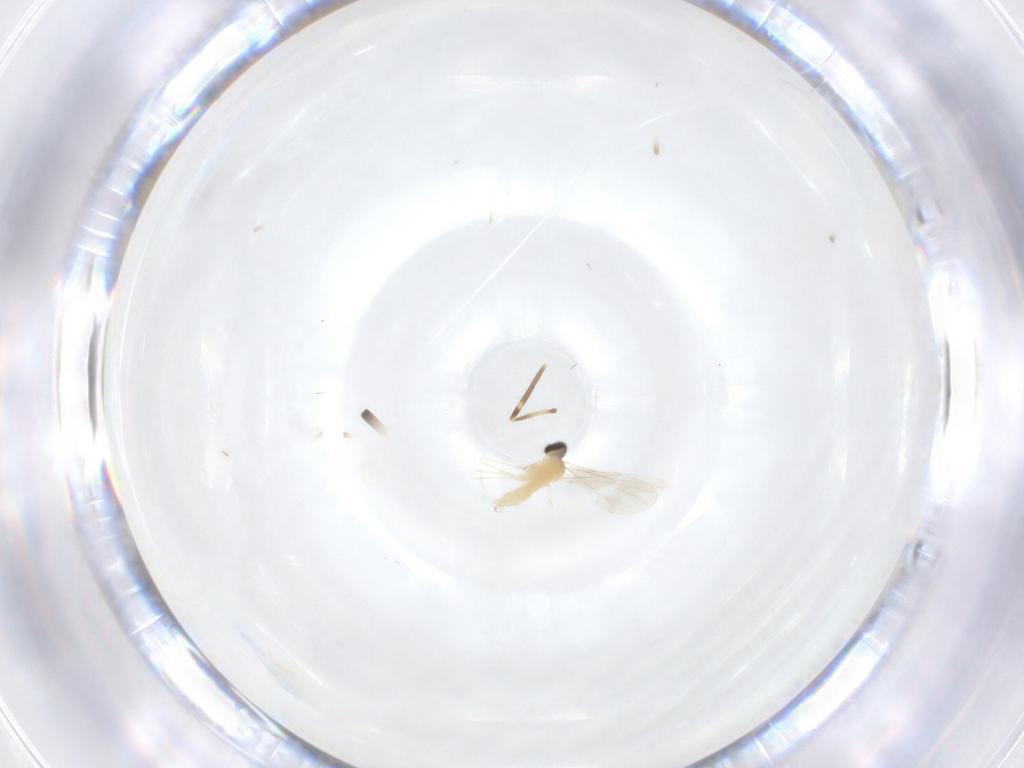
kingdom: Animalia
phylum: Arthropoda
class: Insecta
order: Diptera
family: Cecidomyiidae
